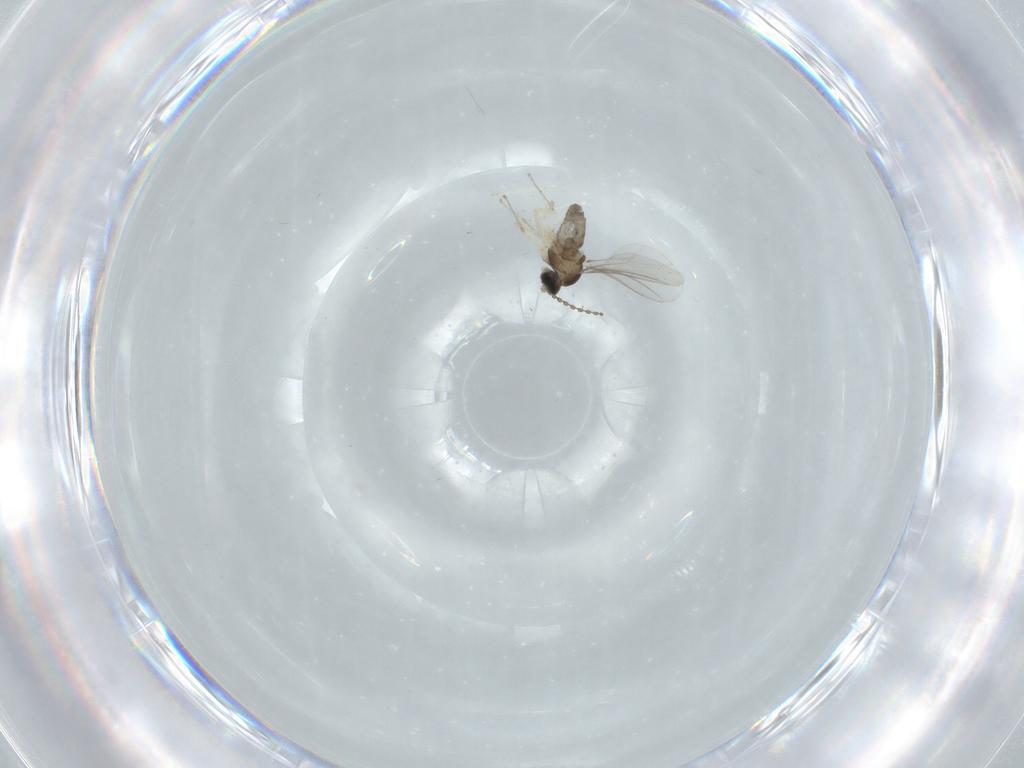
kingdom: Animalia
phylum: Arthropoda
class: Insecta
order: Diptera
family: Cecidomyiidae
